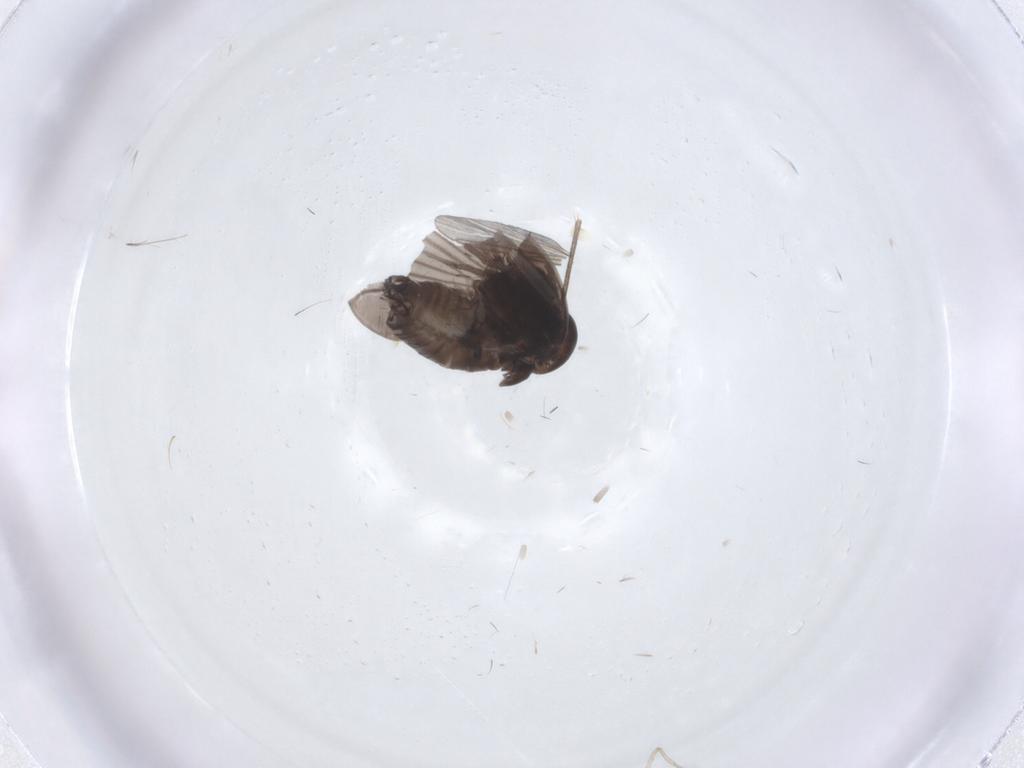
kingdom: Animalia
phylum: Arthropoda
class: Insecta
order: Diptera
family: Psychodidae
